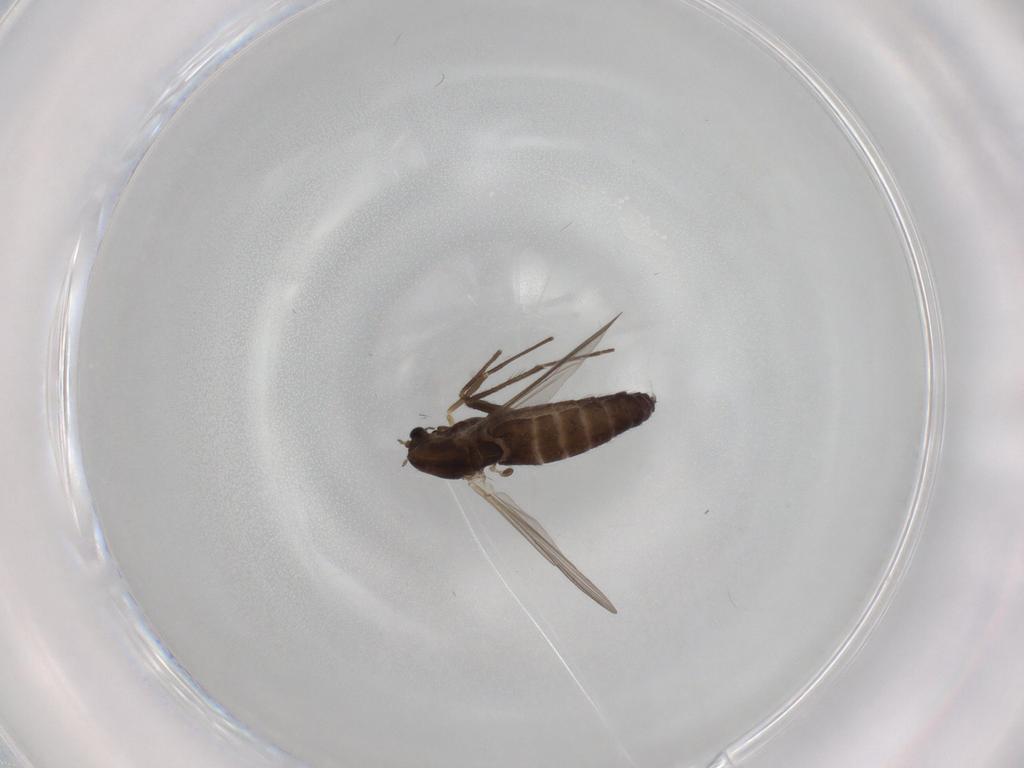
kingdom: Animalia
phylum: Arthropoda
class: Insecta
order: Diptera
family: Chironomidae
